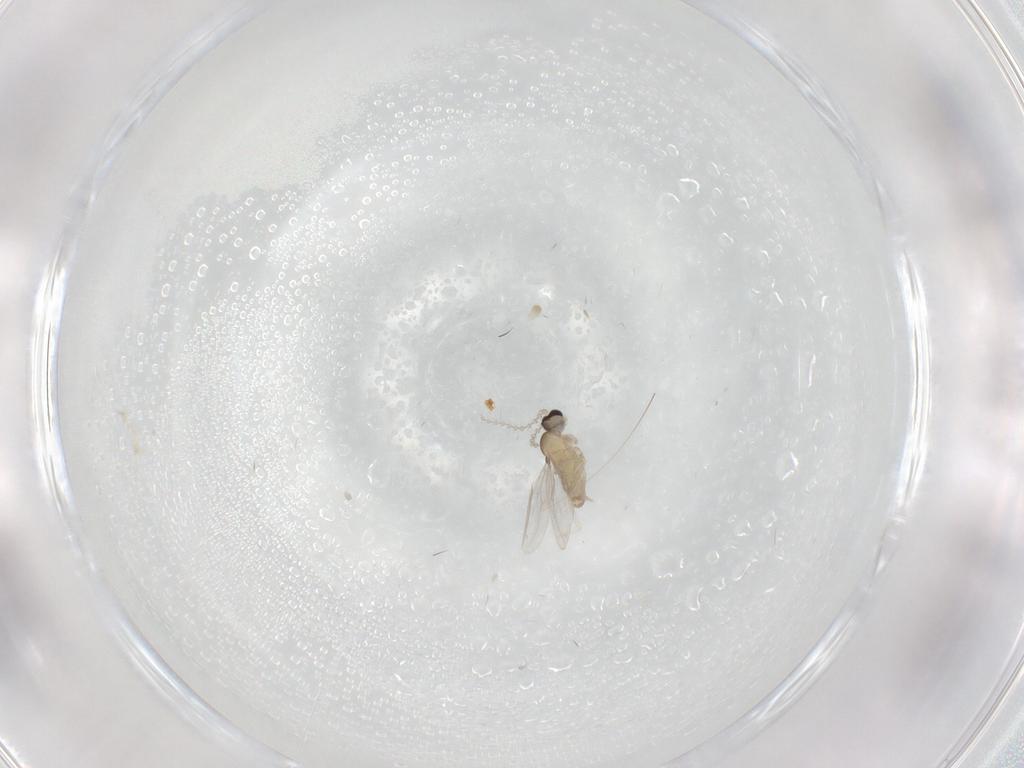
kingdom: Animalia
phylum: Arthropoda
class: Insecta
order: Diptera
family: Cecidomyiidae
